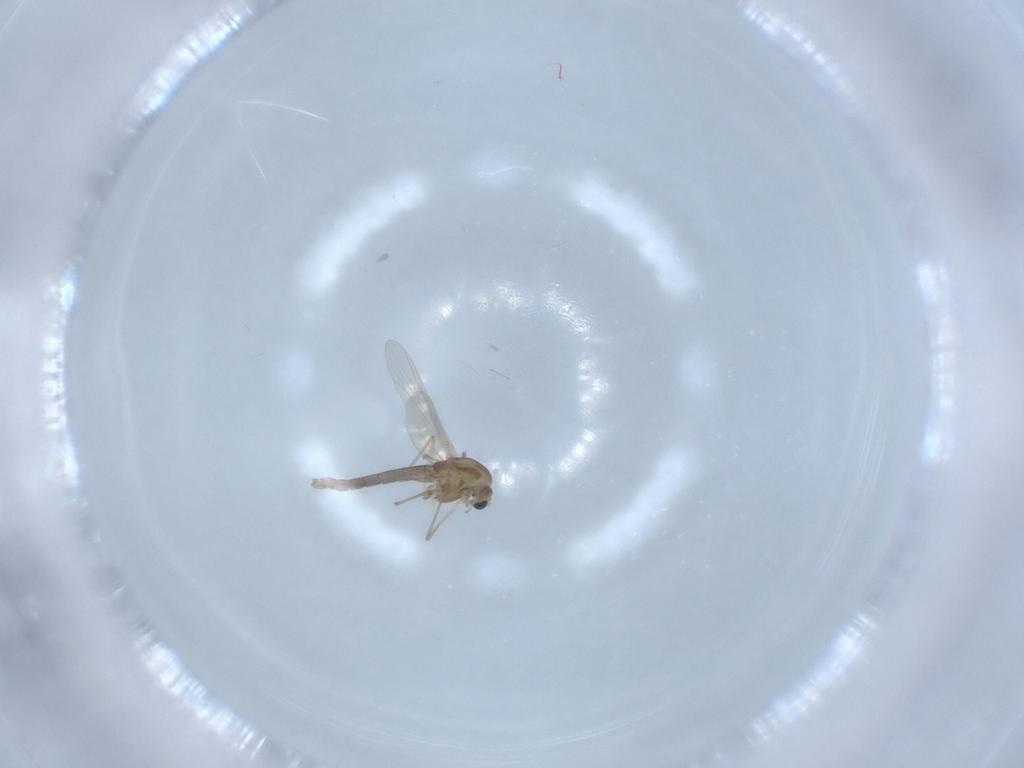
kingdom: Animalia
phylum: Arthropoda
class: Insecta
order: Diptera
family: Chironomidae
